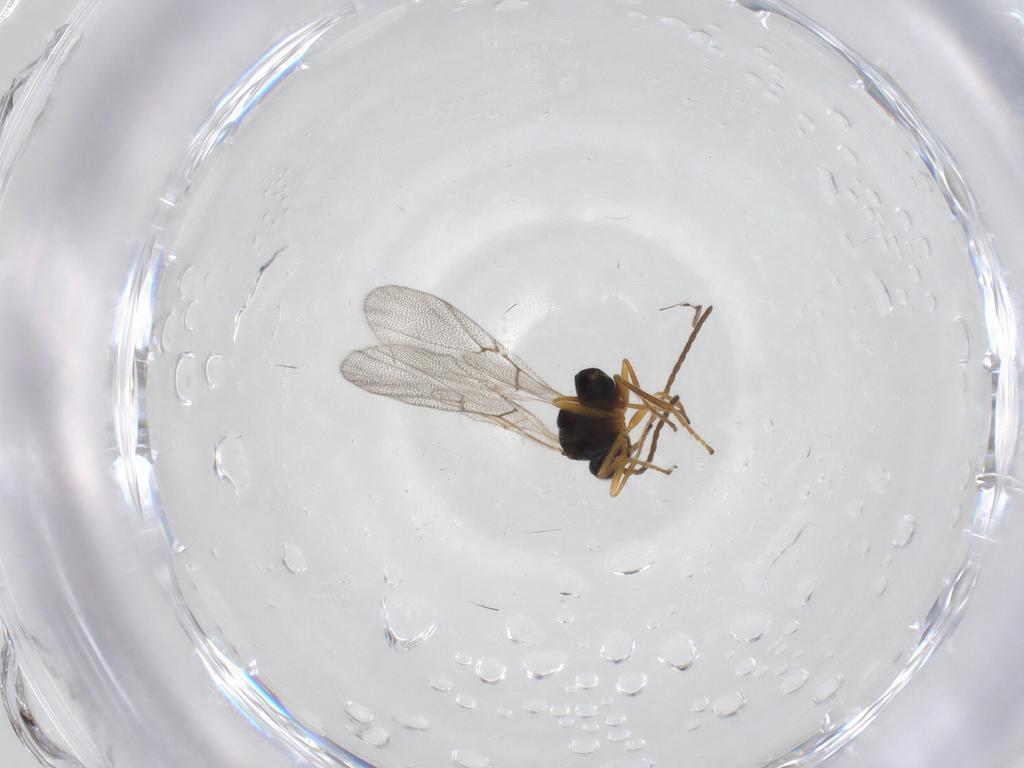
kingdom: Animalia
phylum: Arthropoda
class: Insecta
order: Hymenoptera
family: Cynipidae
